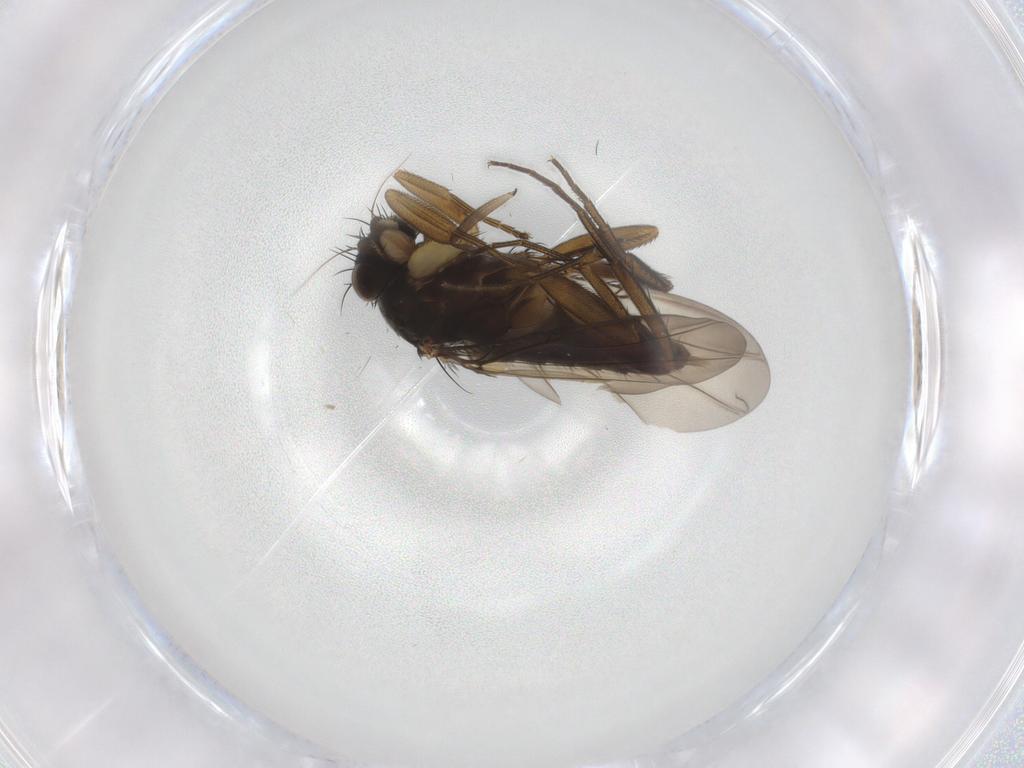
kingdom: Animalia
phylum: Arthropoda
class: Insecta
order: Diptera
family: Phoridae
